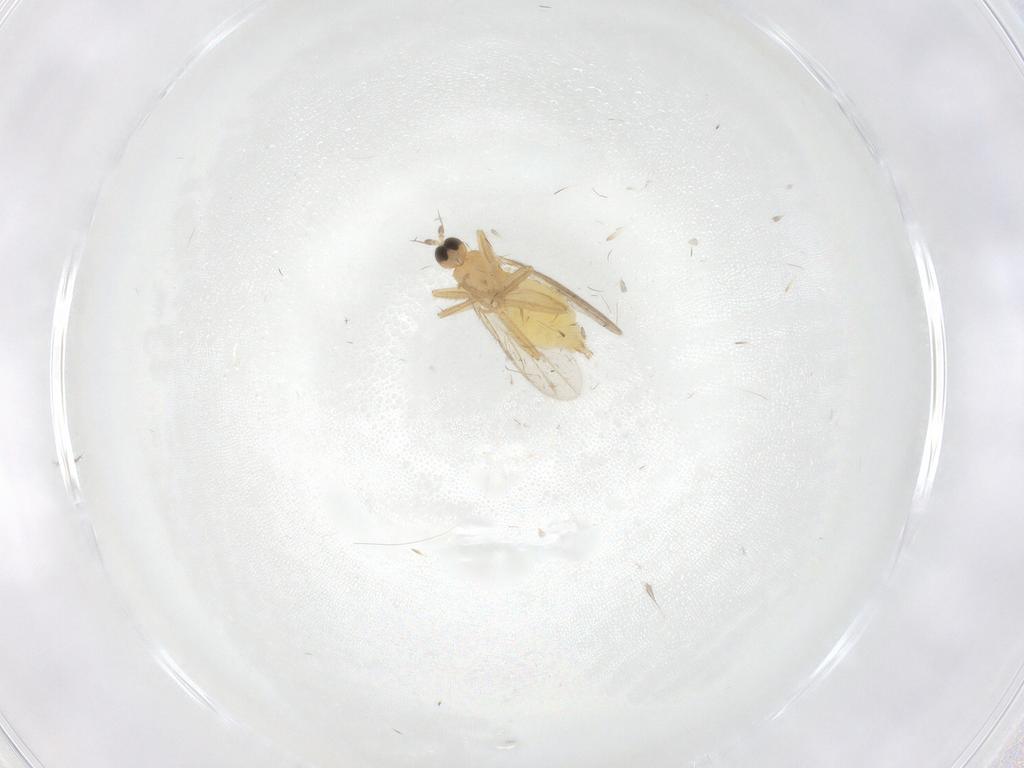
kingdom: Animalia
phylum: Arthropoda
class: Insecta
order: Diptera
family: Hybotidae
